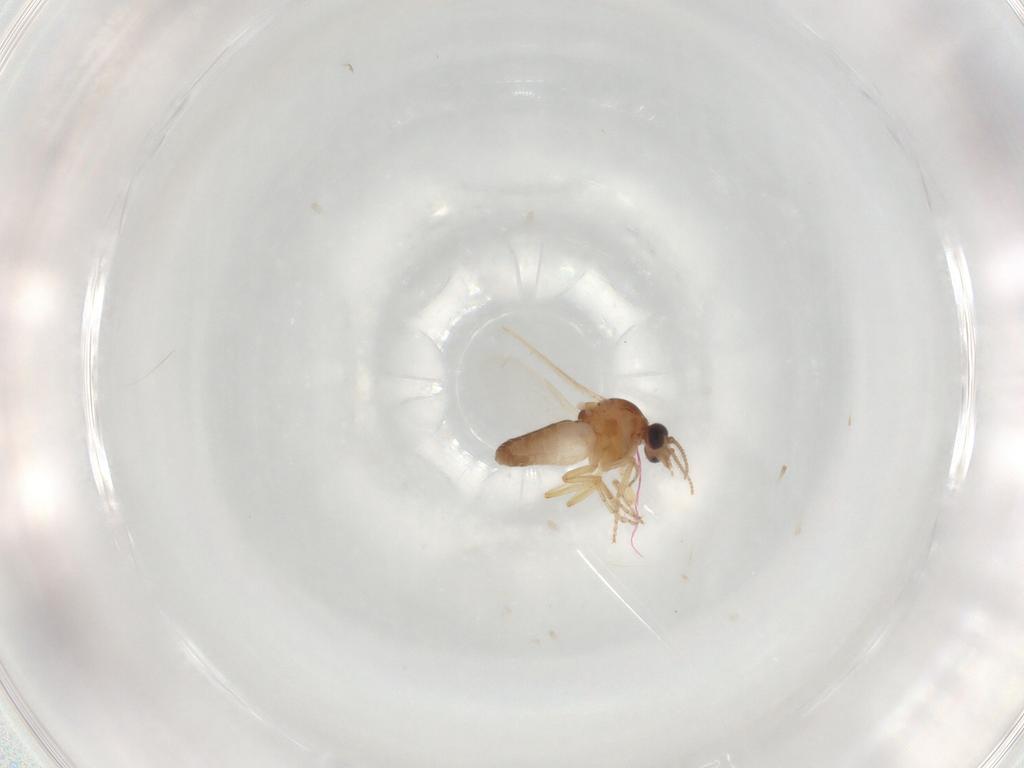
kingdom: Animalia
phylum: Arthropoda
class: Insecta
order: Diptera
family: Ceratopogonidae
